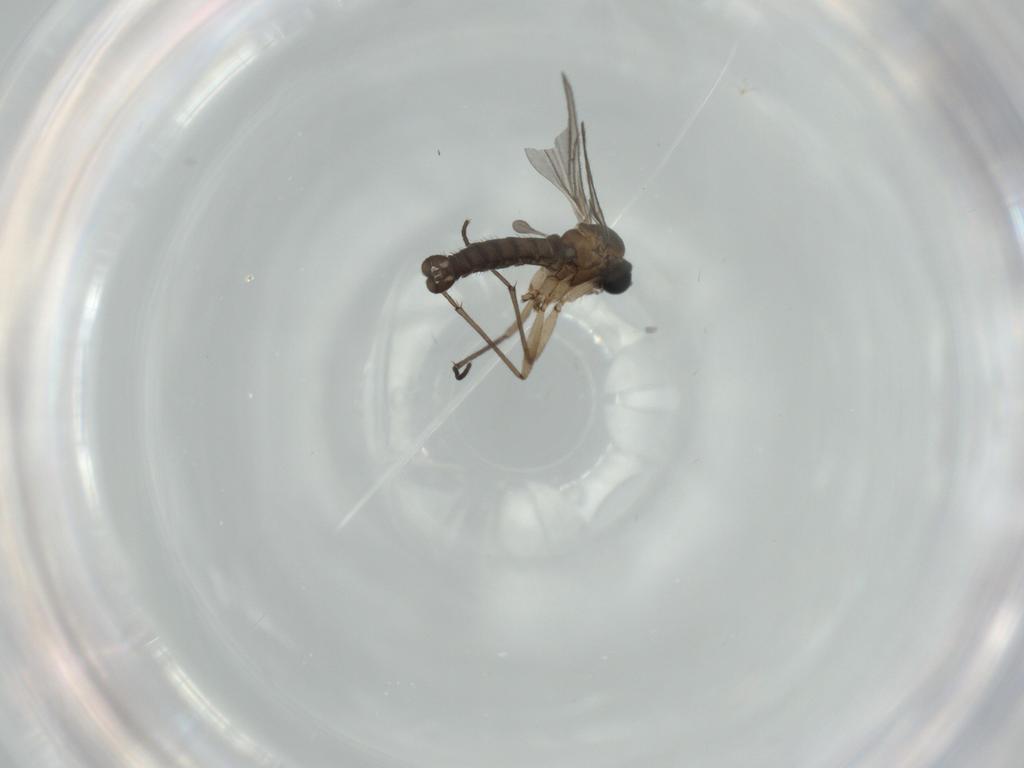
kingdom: Animalia
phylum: Arthropoda
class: Insecta
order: Diptera
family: Sciaridae
